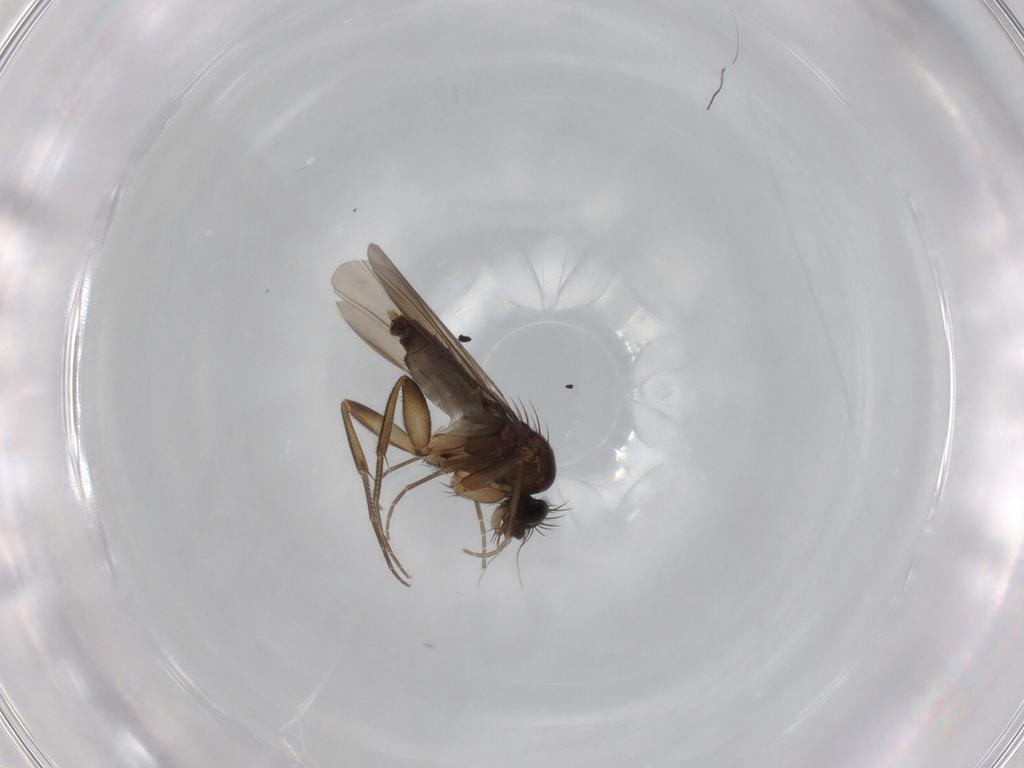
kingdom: Animalia
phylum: Arthropoda
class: Insecta
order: Diptera
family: Phoridae
